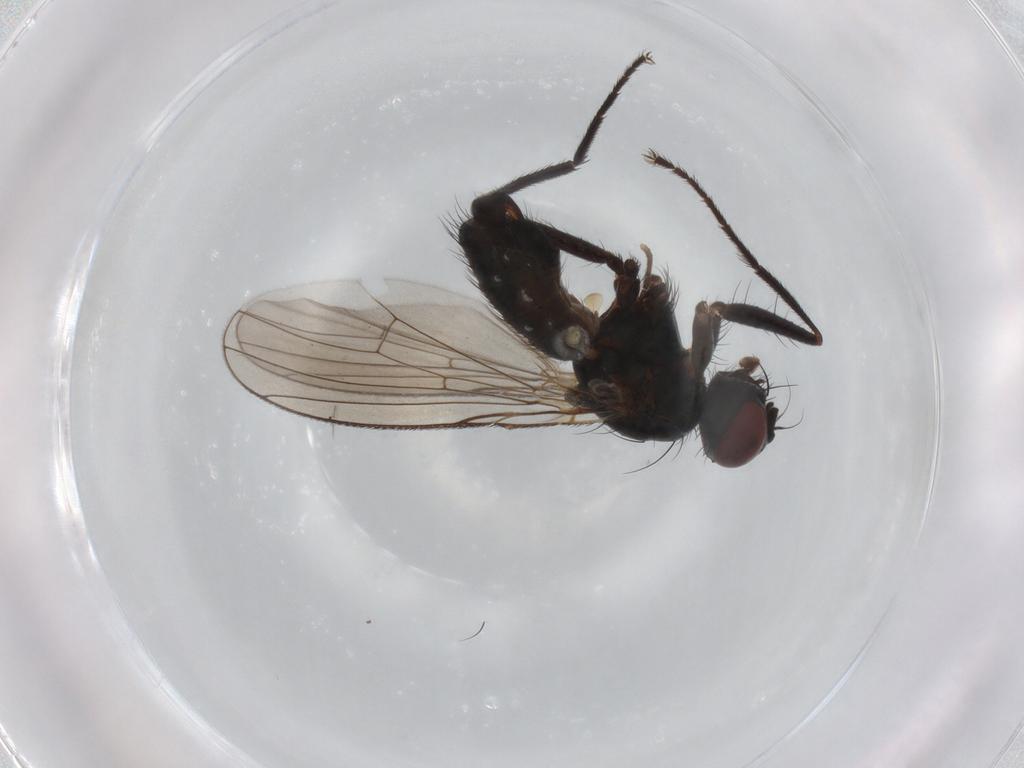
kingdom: Animalia
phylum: Arthropoda
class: Insecta
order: Diptera
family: Muscidae
